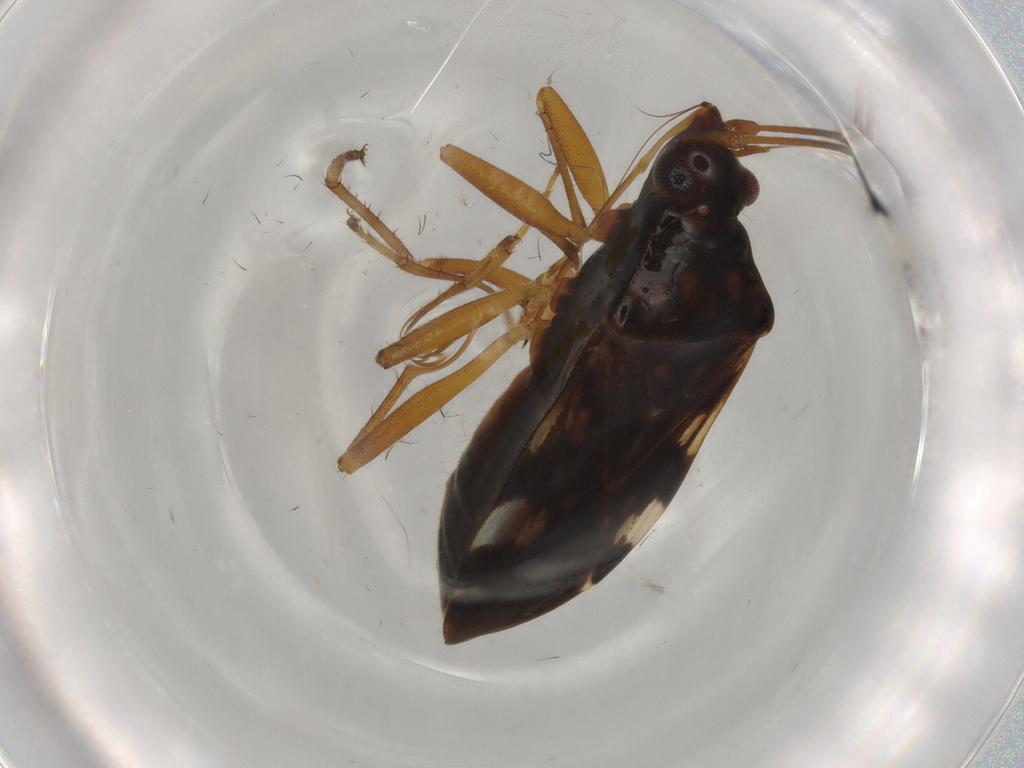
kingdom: Animalia
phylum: Arthropoda
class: Insecta
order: Hemiptera
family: Rhyparochromidae
